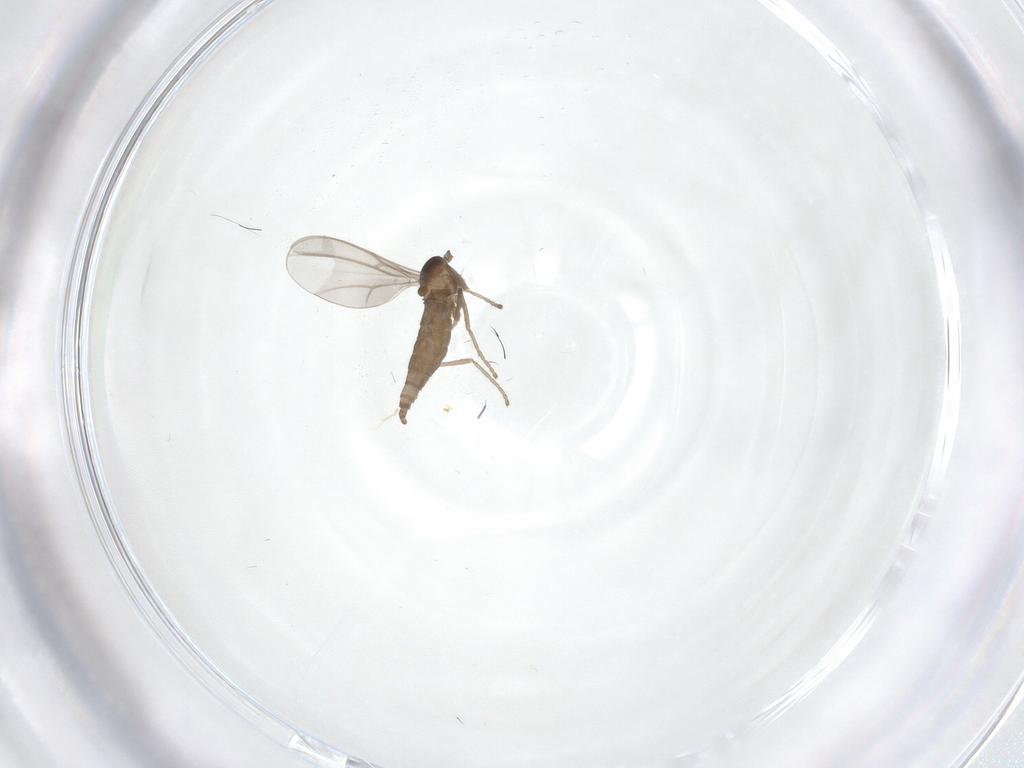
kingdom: Animalia
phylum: Arthropoda
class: Insecta
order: Diptera
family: Cecidomyiidae
